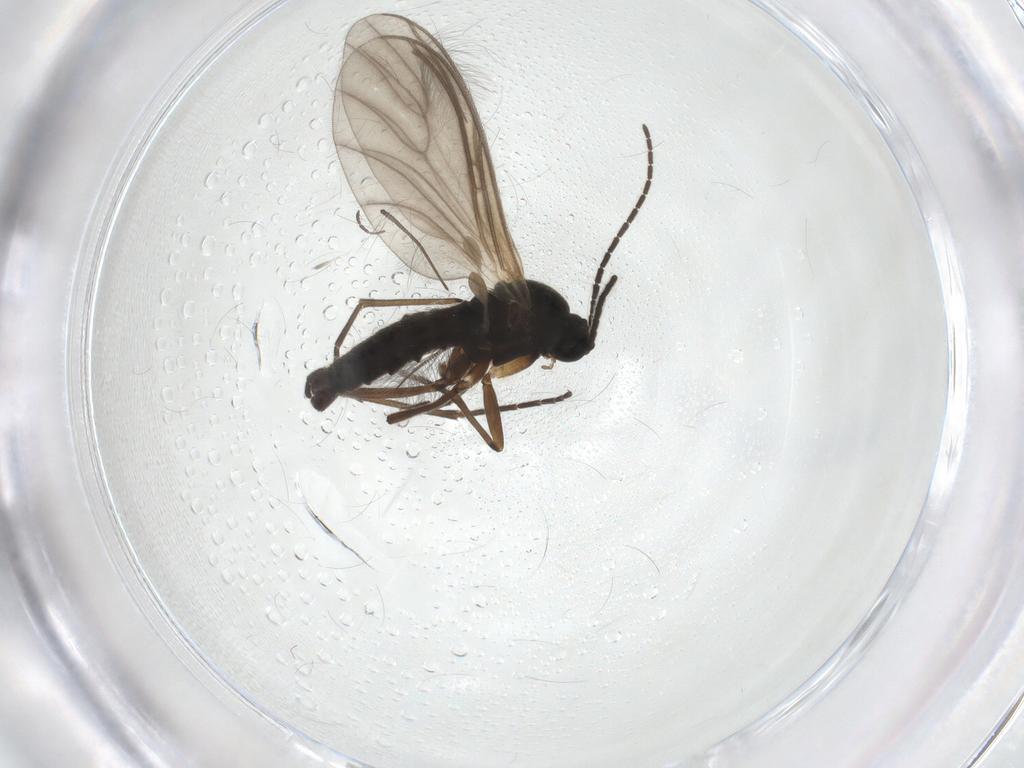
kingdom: Animalia
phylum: Arthropoda
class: Insecta
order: Diptera
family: Sciaridae
